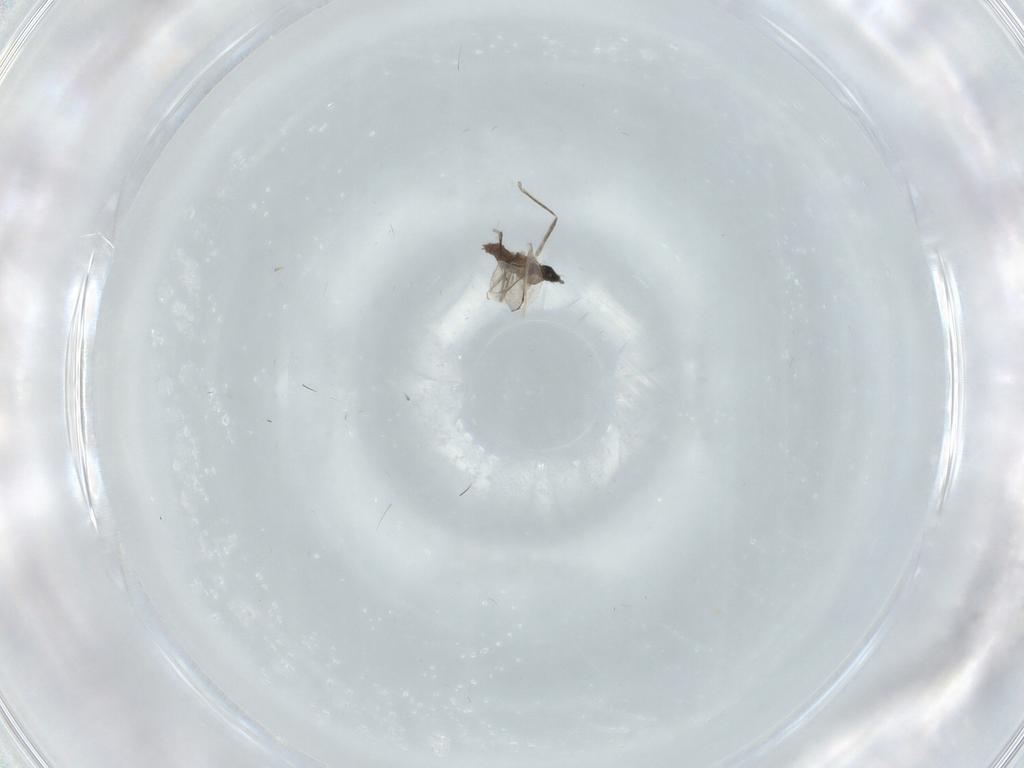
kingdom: Animalia
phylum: Arthropoda
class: Insecta
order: Diptera
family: Cecidomyiidae
